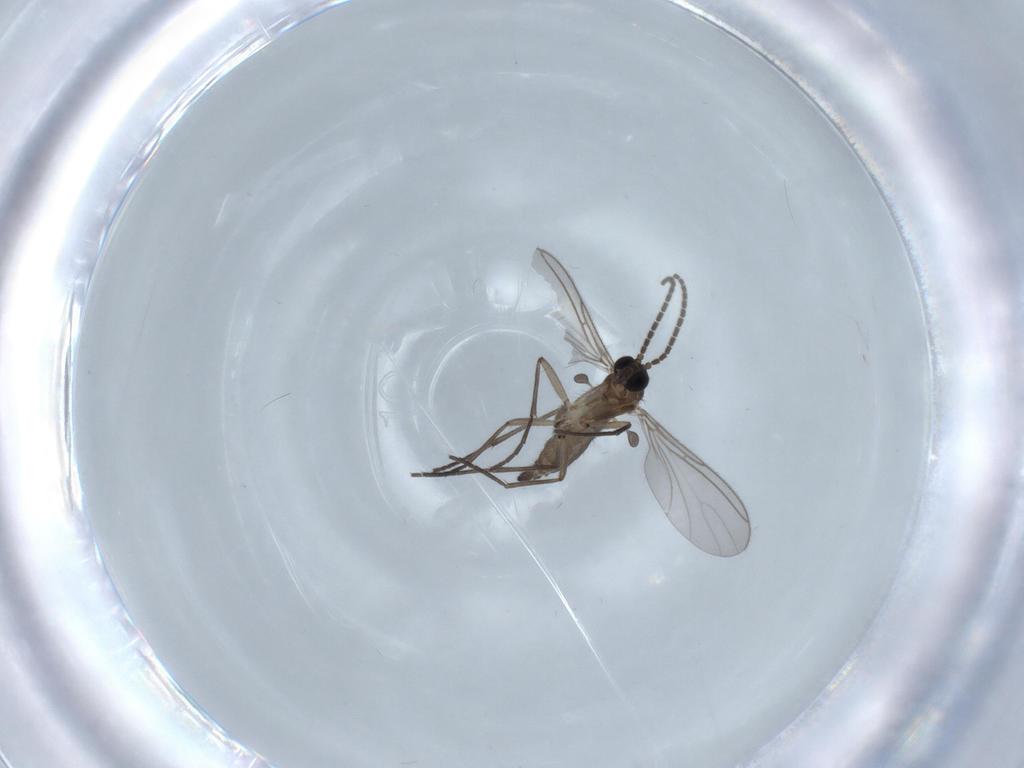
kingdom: Animalia
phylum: Arthropoda
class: Insecta
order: Diptera
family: Sciaridae
